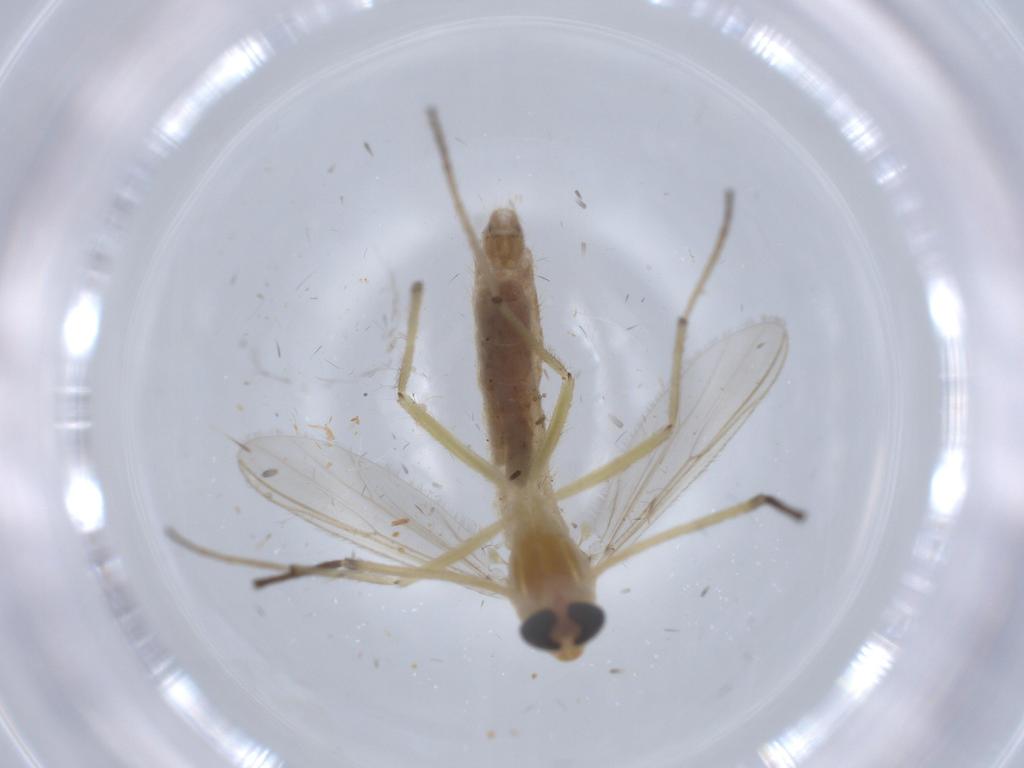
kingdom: Animalia
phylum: Arthropoda
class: Insecta
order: Diptera
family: Chironomidae
